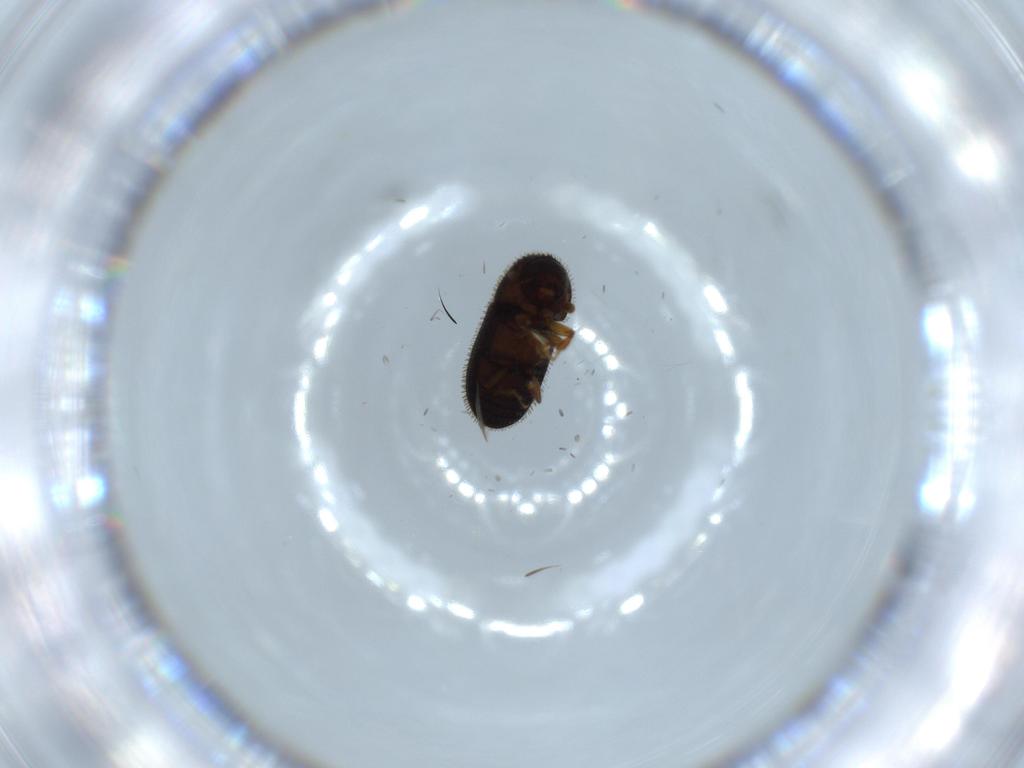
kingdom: Animalia
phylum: Arthropoda
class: Insecta
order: Coleoptera
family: Curculionidae
